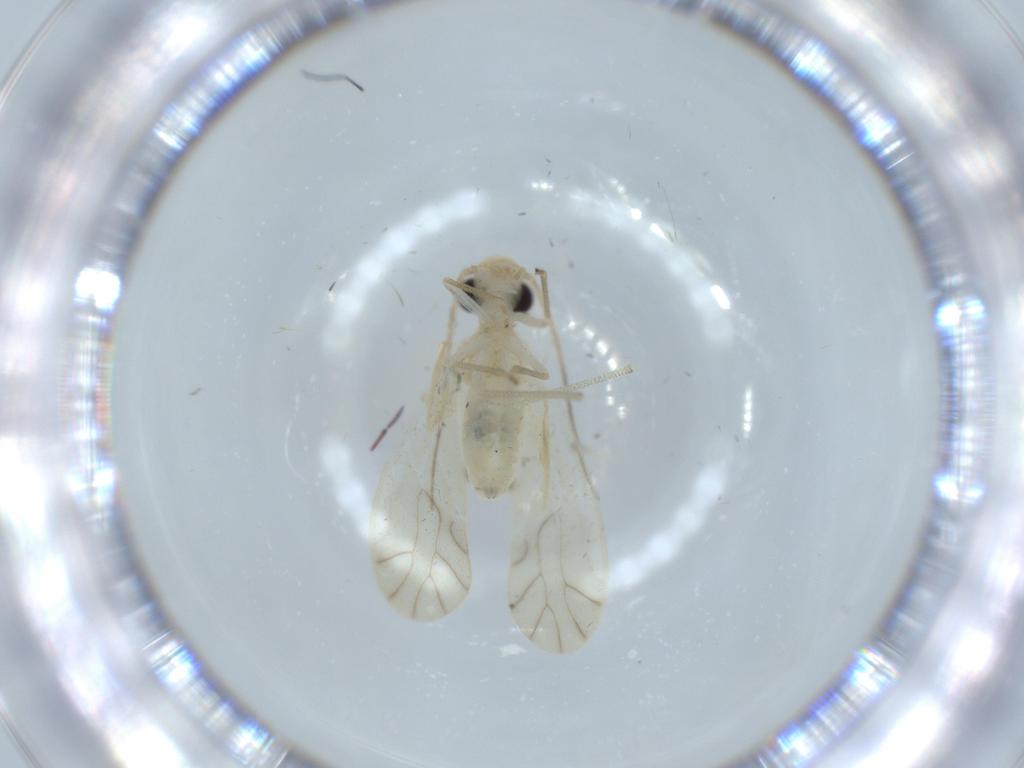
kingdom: Animalia
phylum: Arthropoda
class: Insecta
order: Psocodea
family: Caeciliusidae
